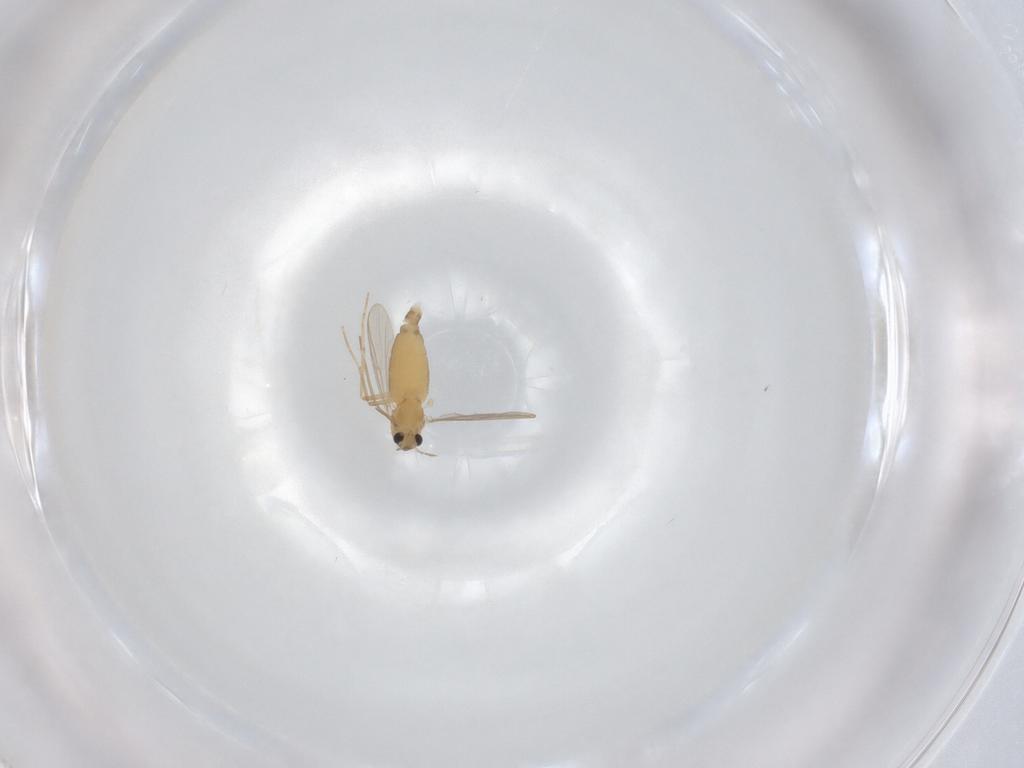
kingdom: Animalia
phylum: Arthropoda
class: Insecta
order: Diptera
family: Chironomidae
